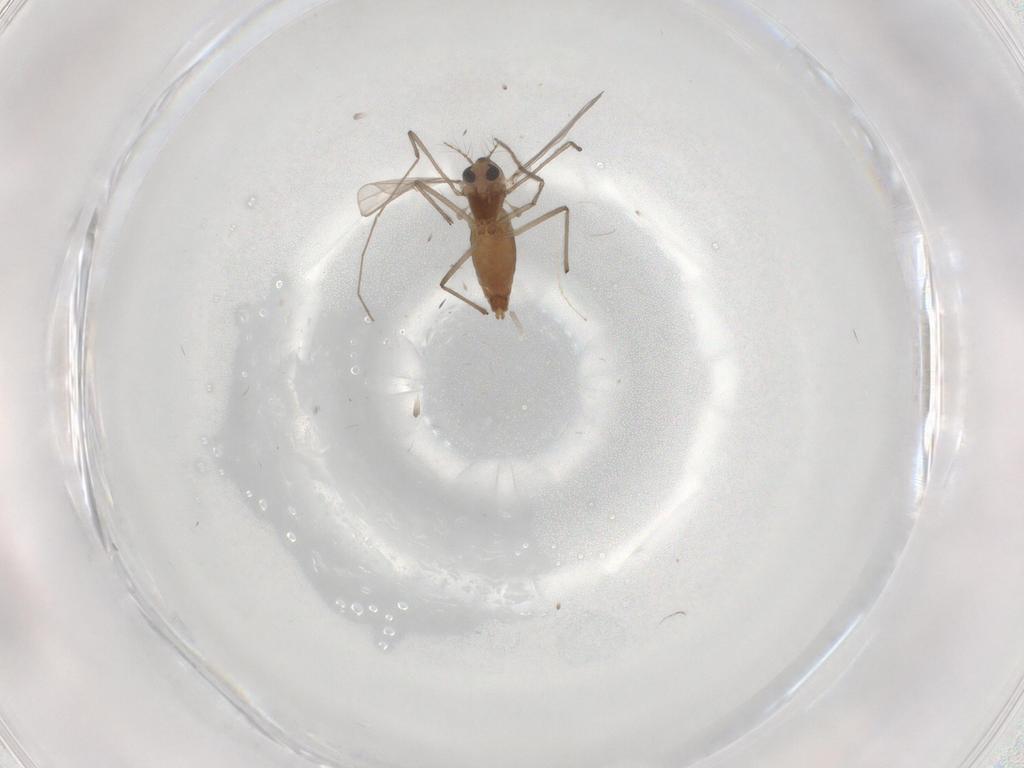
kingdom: Animalia
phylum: Arthropoda
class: Insecta
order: Diptera
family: Chironomidae
